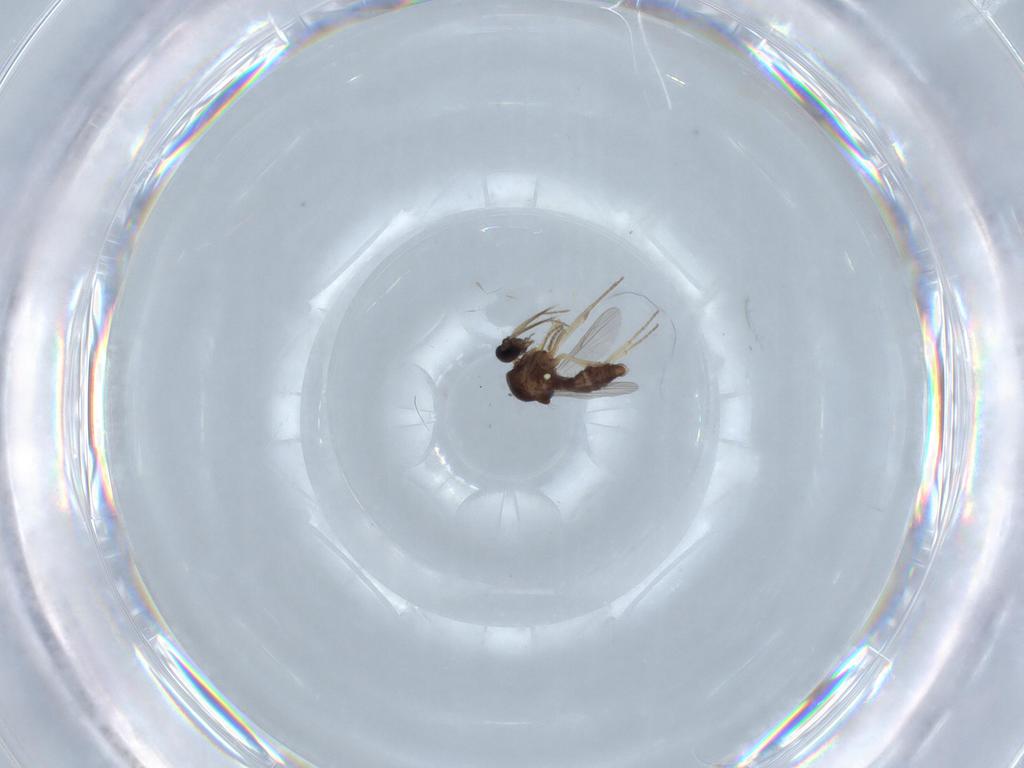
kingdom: Animalia
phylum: Arthropoda
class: Insecta
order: Diptera
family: Ceratopogonidae
